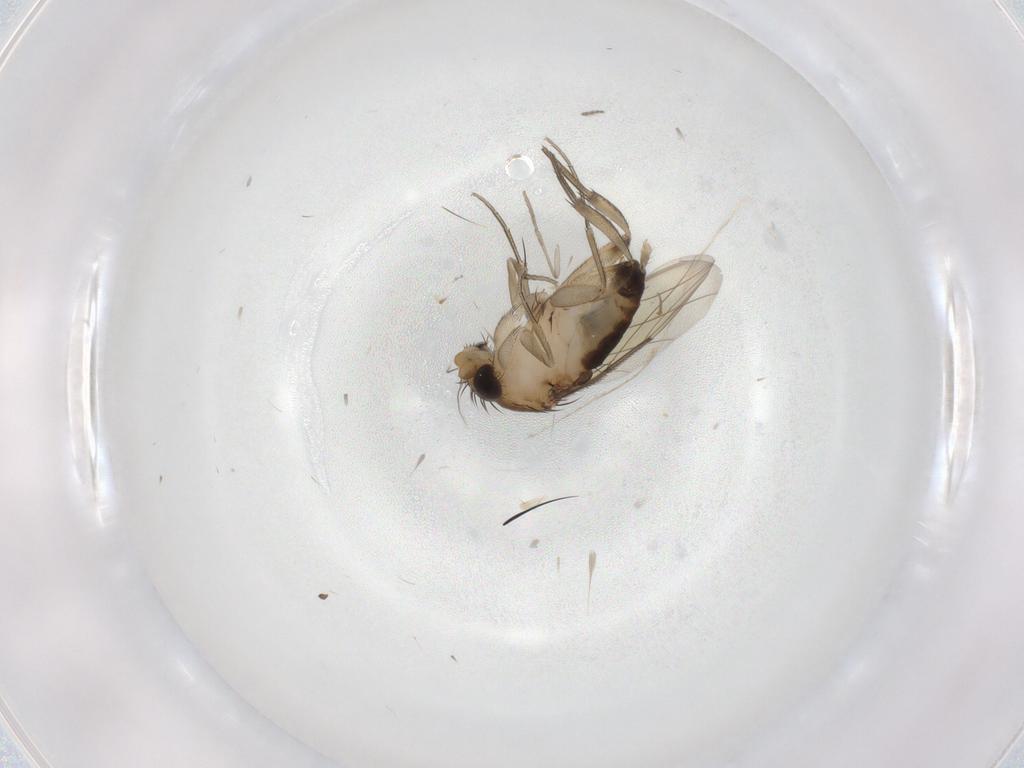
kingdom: Animalia
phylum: Arthropoda
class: Insecta
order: Diptera
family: Phoridae
